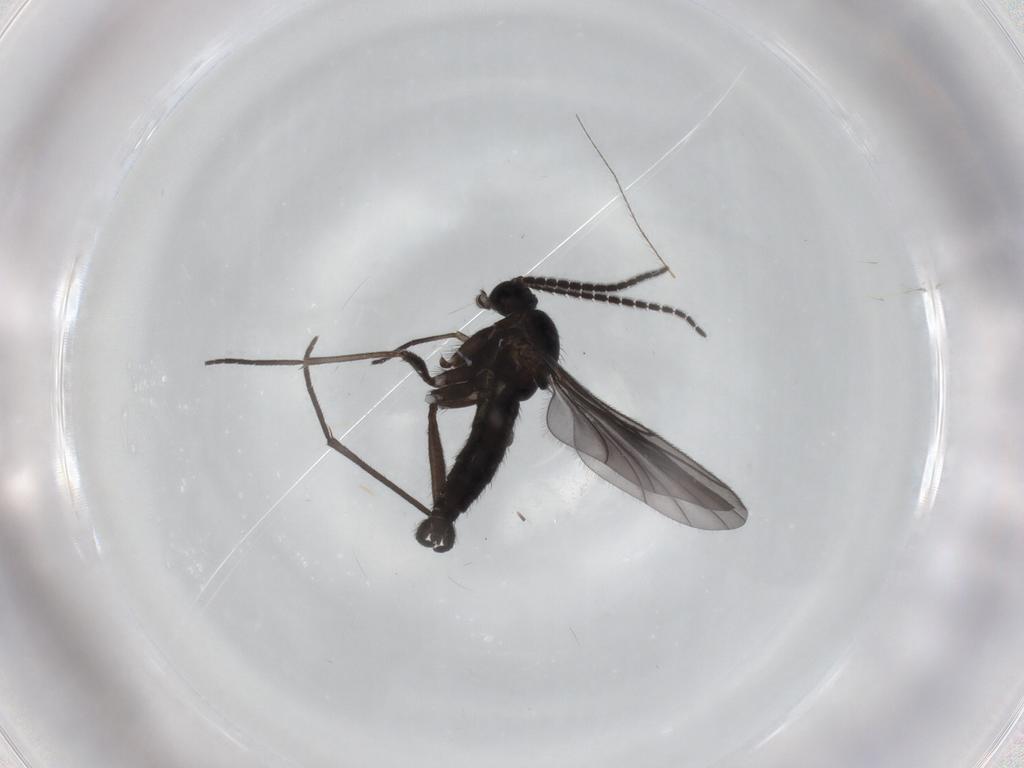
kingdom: Animalia
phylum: Arthropoda
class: Insecta
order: Diptera
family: Sciaridae
